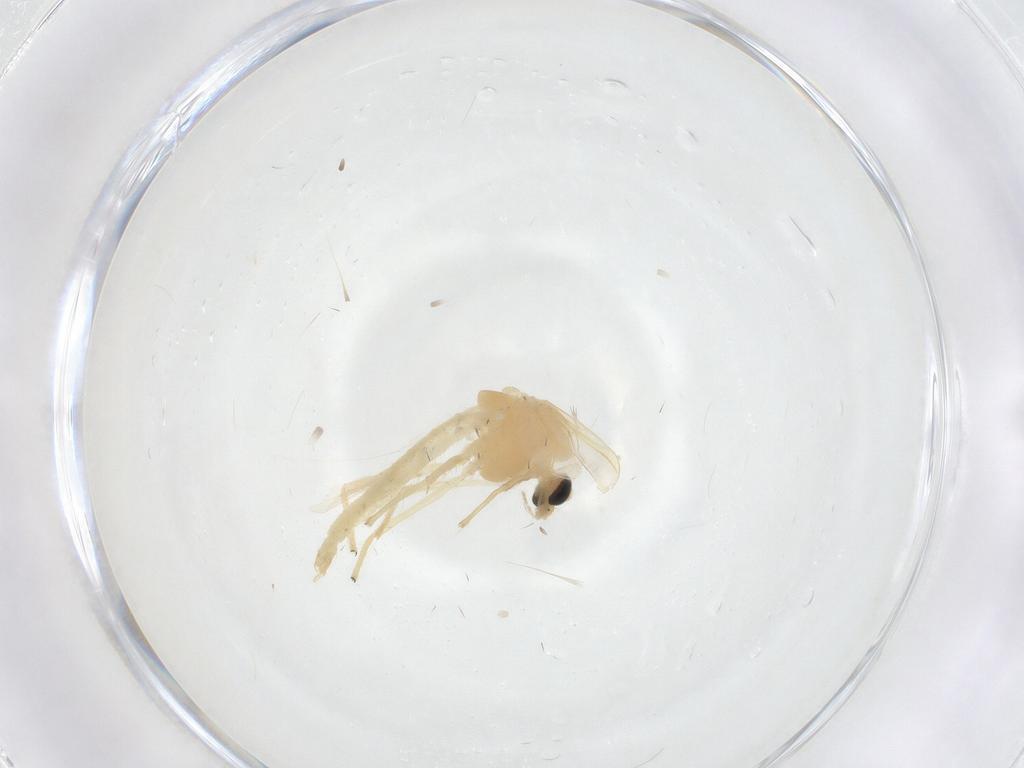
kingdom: Animalia
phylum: Arthropoda
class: Insecta
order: Diptera
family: Chironomidae
